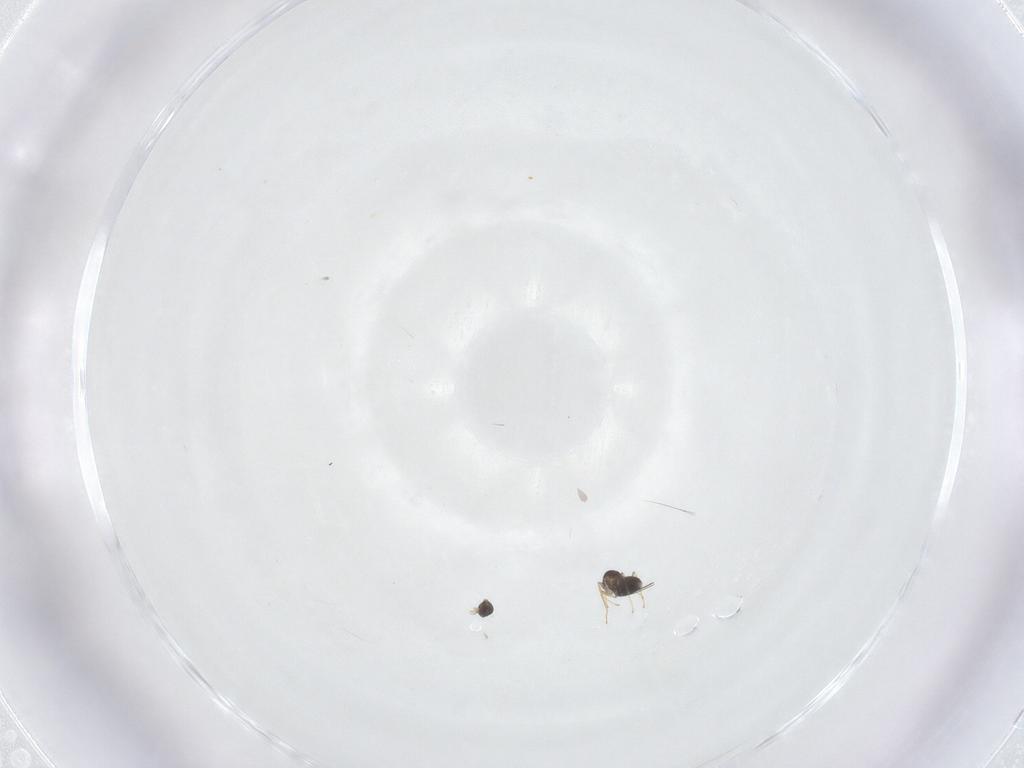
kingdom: Animalia
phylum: Arthropoda
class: Insecta
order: Hymenoptera
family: Mymaridae
